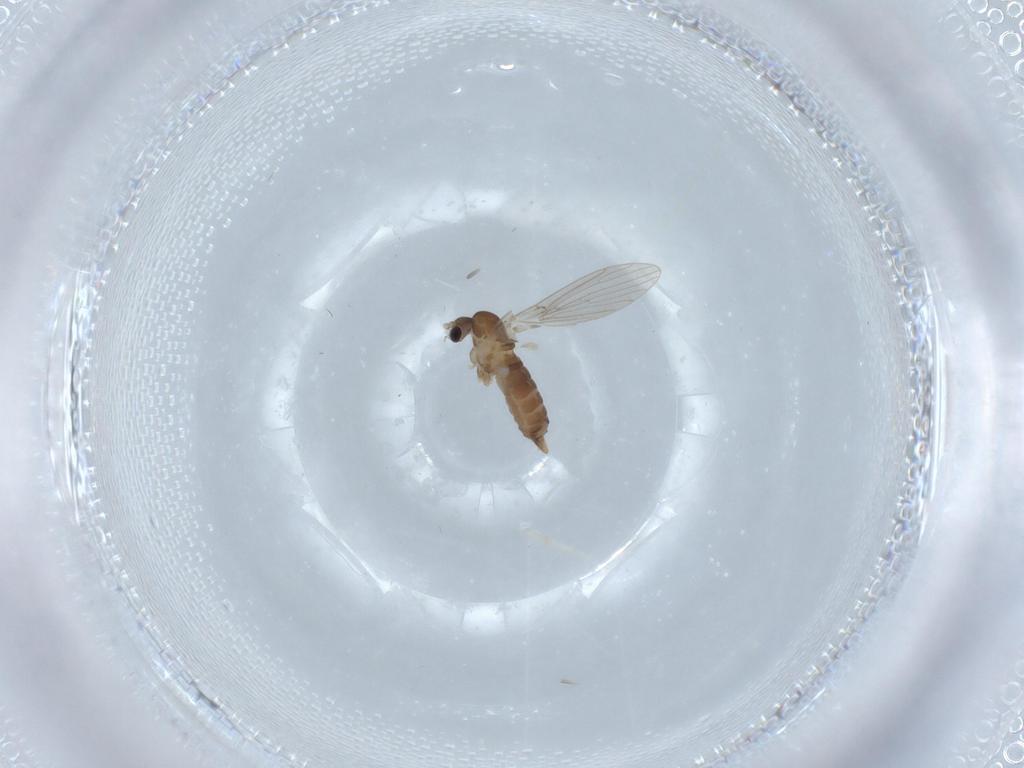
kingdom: Animalia
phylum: Arthropoda
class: Insecta
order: Diptera
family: Psychodidae
